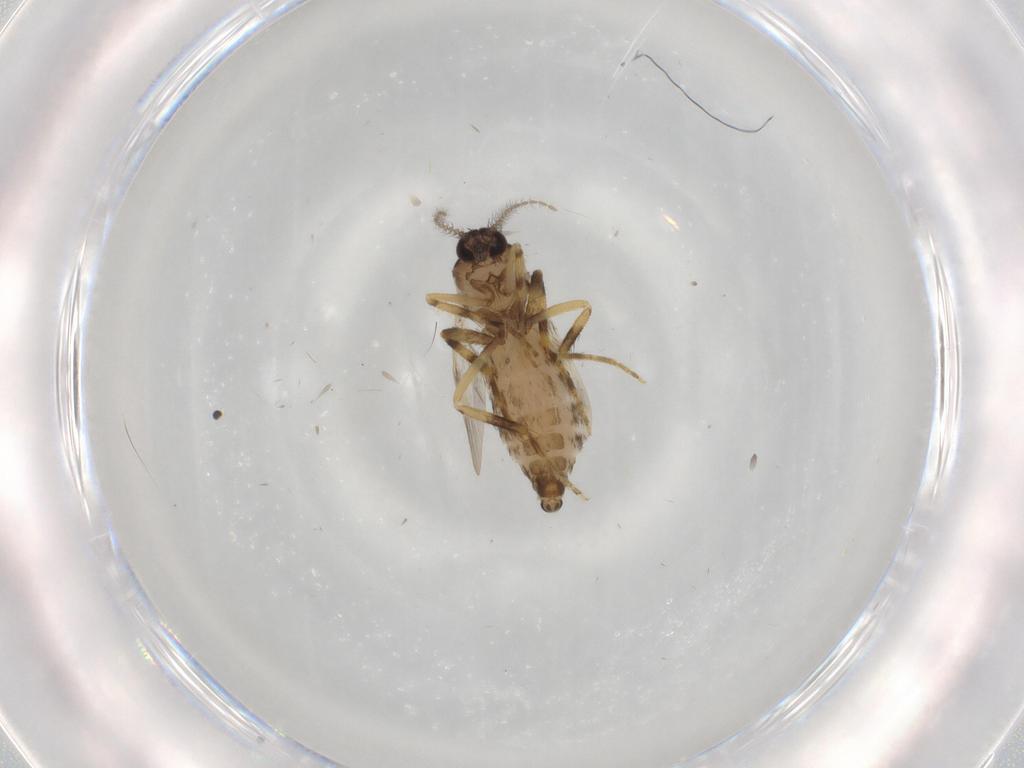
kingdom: Animalia
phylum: Arthropoda
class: Insecta
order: Diptera
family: Ceratopogonidae
